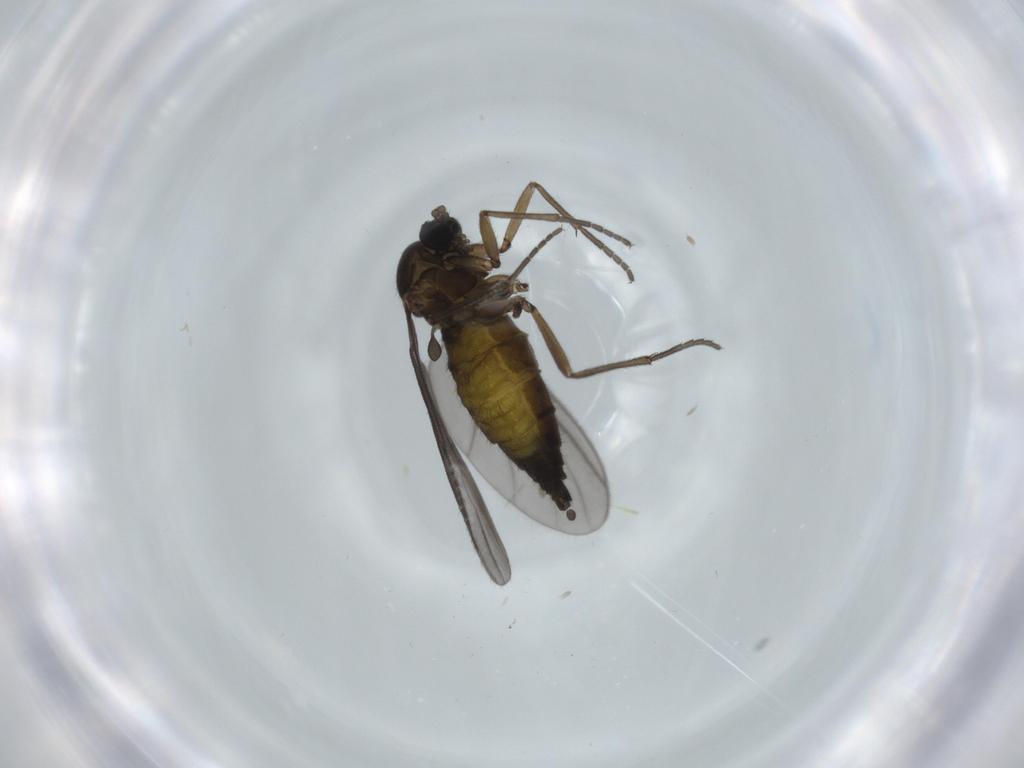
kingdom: Animalia
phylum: Arthropoda
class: Insecta
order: Diptera
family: Sciaridae
